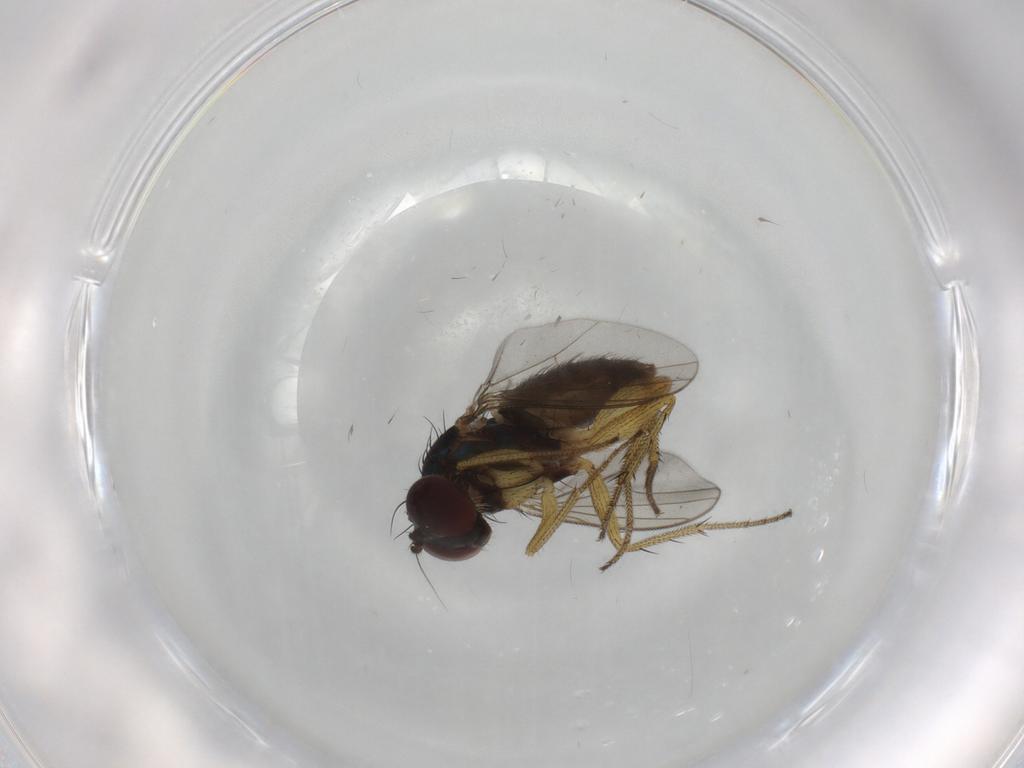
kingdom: Animalia
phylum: Arthropoda
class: Insecta
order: Diptera
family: Dolichopodidae
